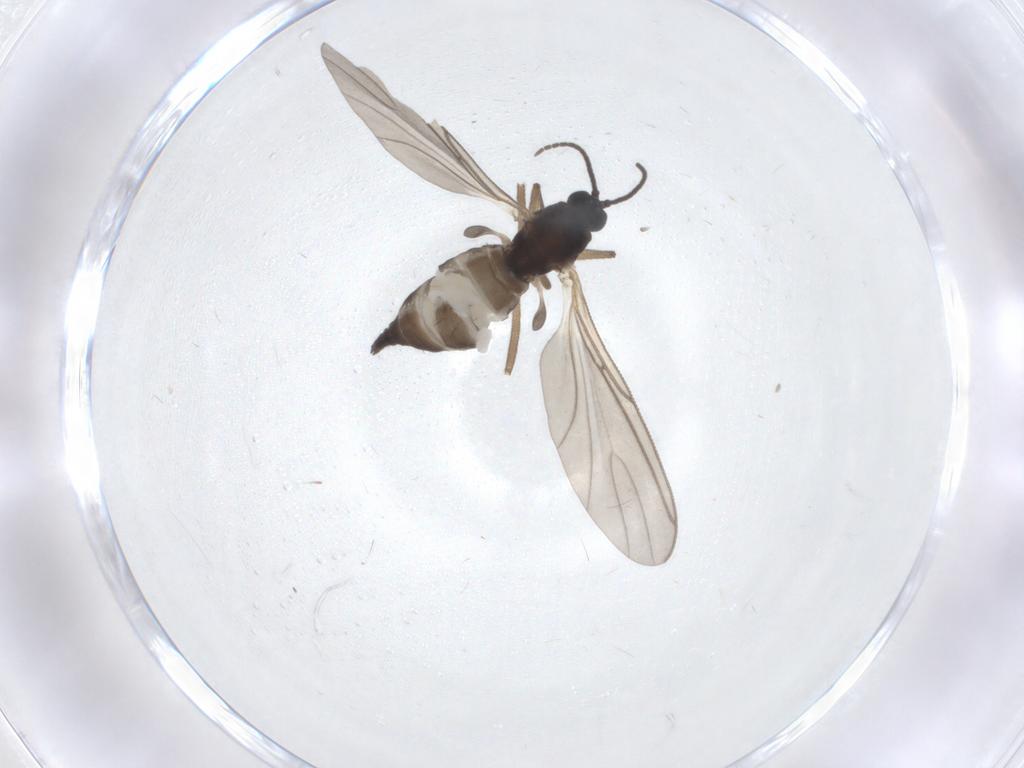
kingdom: Animalia
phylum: Arthropoda
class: Insecta
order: Diptera
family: Sciaridae
